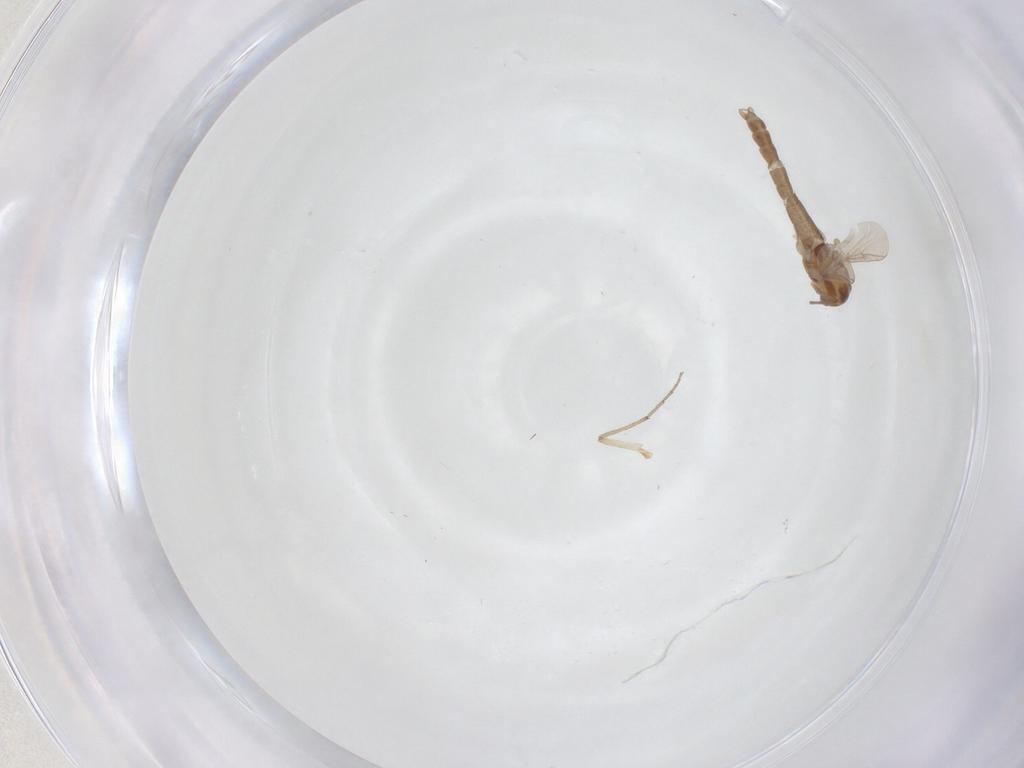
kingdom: Animalia
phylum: Arthropoda
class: Insecta
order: Diptera
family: Chironomidae
